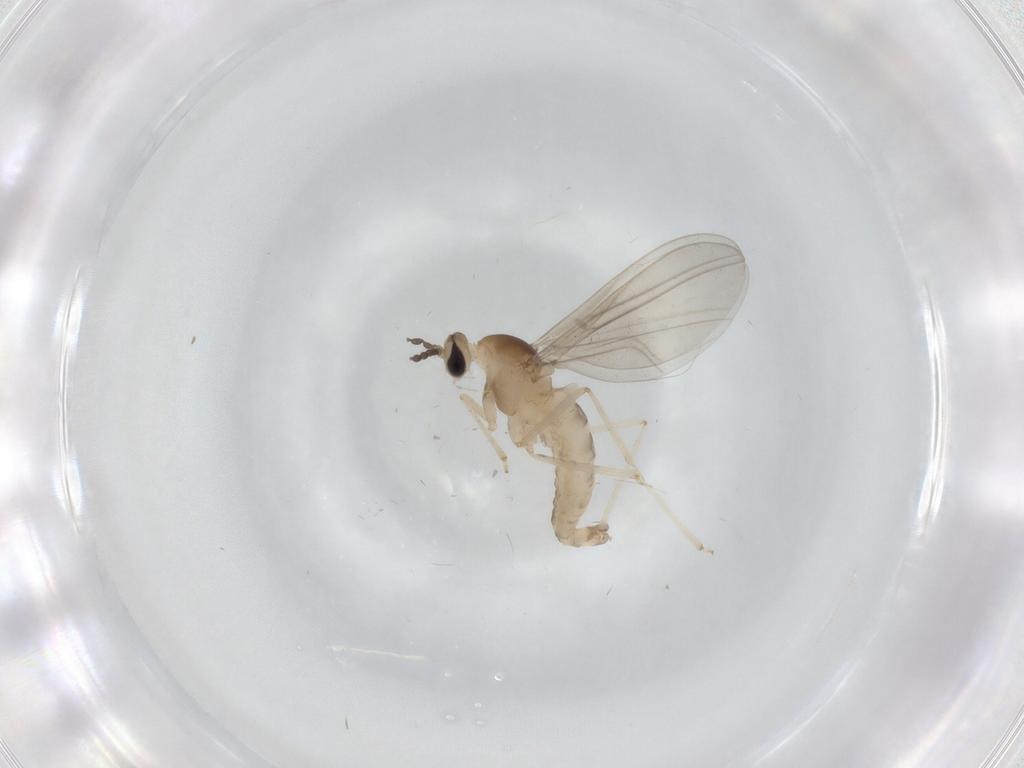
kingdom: Animalia
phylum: Arthropoda
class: Insecta
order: Diptera
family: Cecidomyiidae
